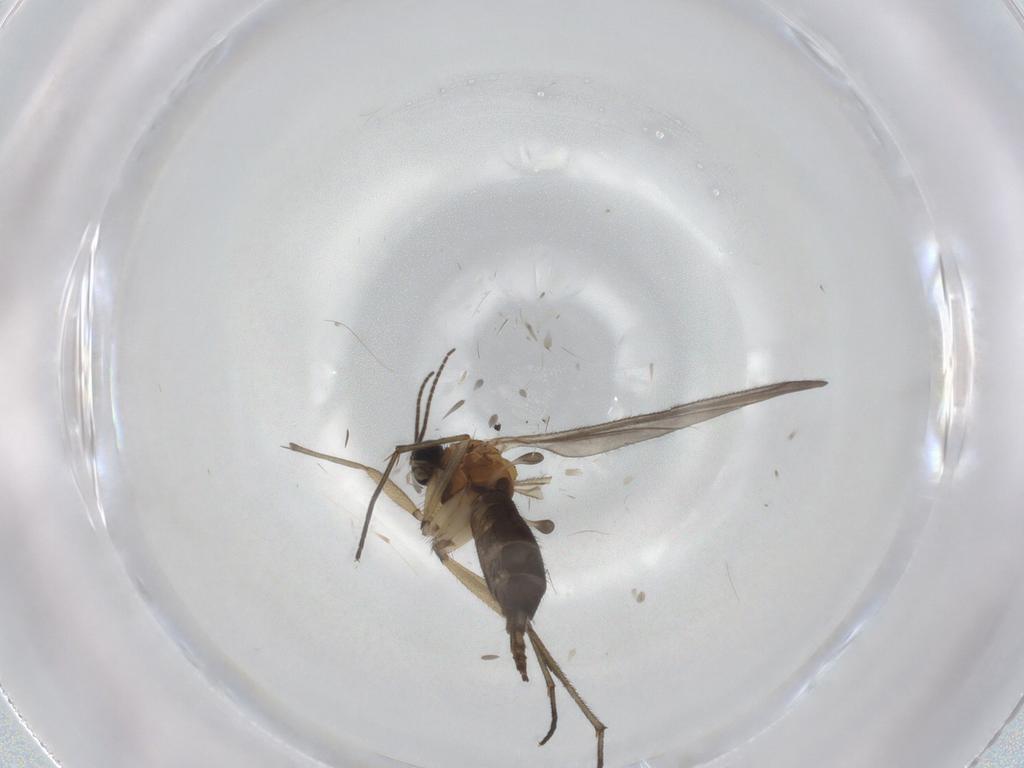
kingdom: Animalia
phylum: Arthropoda
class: Insecta
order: Diptera
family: Sciaridae
